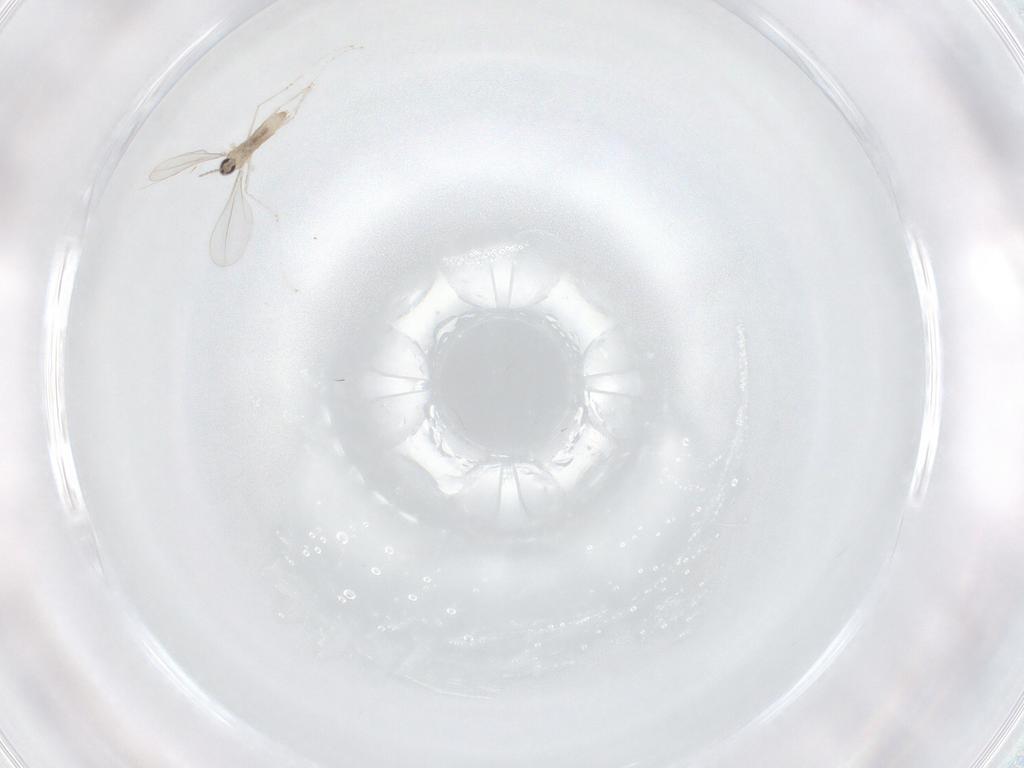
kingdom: Animalia
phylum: Arthropoda
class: Insecta
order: Diptera
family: Cecidomyiidae
